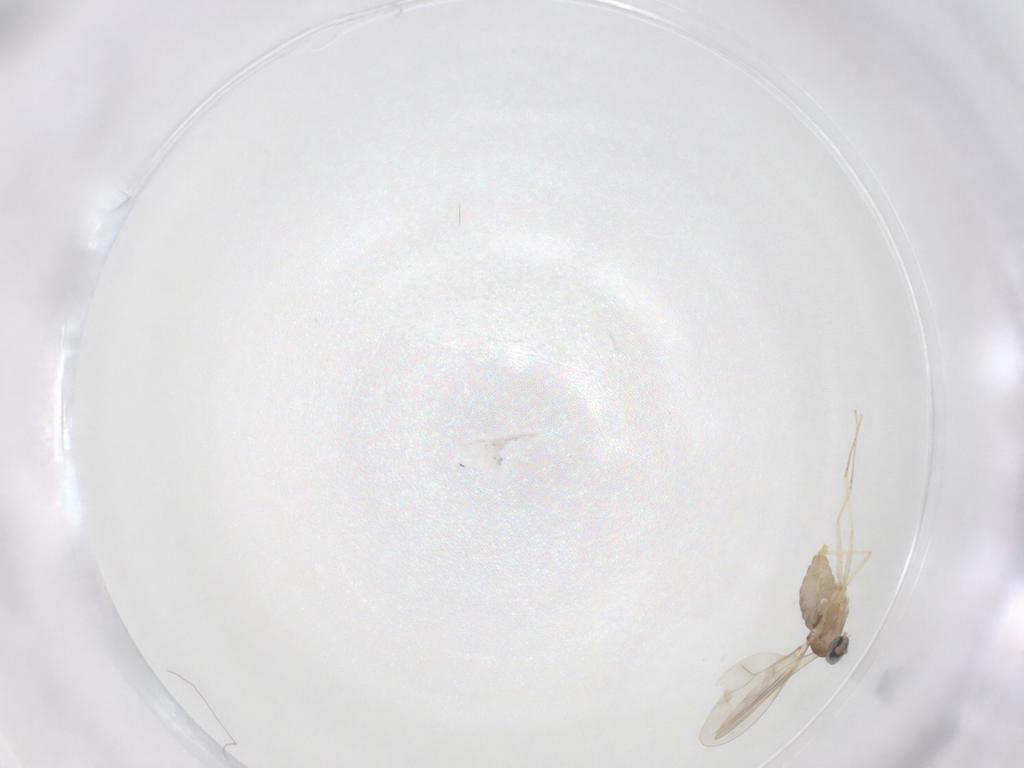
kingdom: Animalia
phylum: Arthropoda
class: Insecta
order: Diptera
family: Cecidomyiidae
